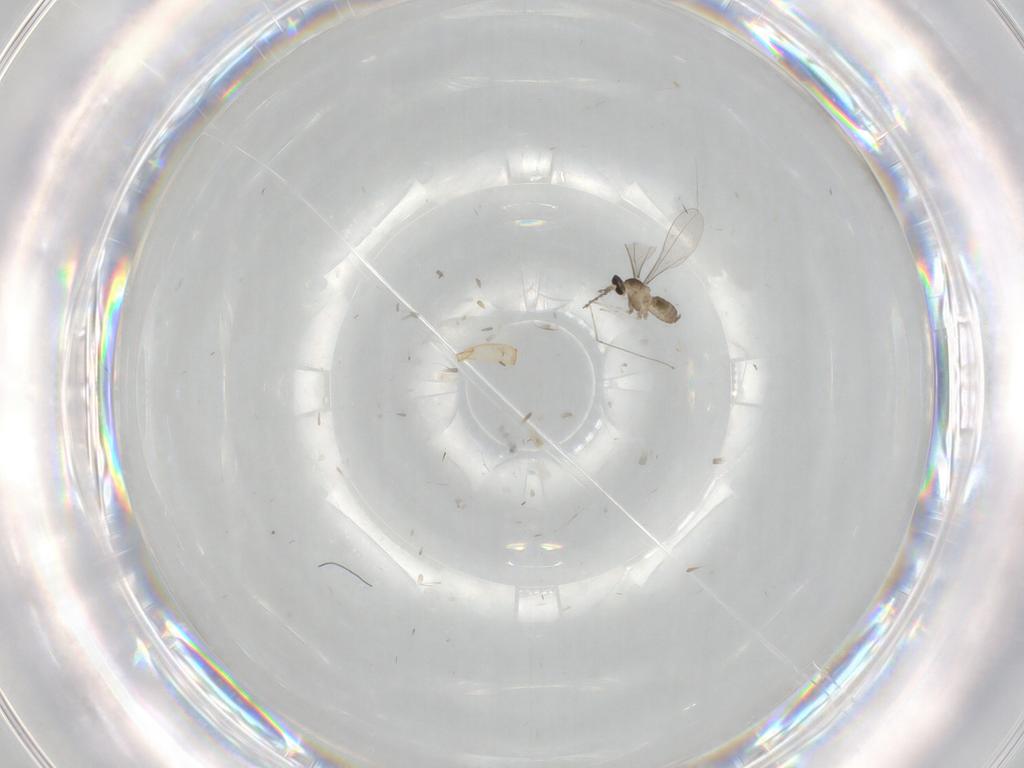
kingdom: Animalia
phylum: Arthropoda
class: Insecta
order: Diptera
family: Cecidomyiidae
